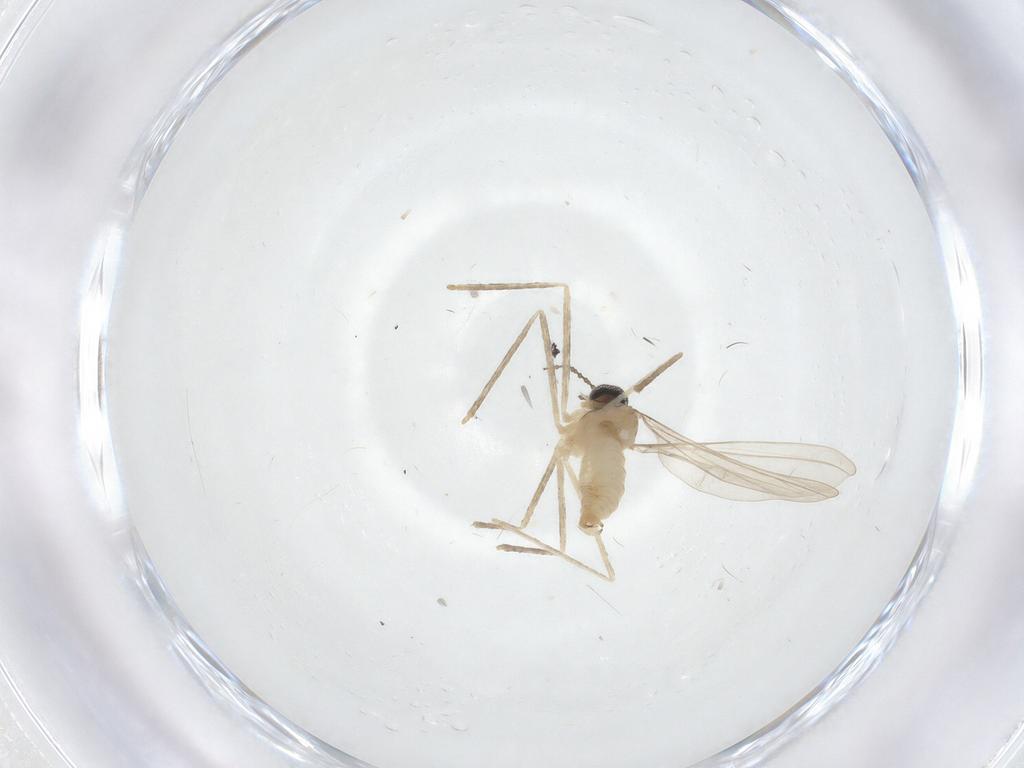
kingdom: Animalia
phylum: Arthropoda
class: Insecta
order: Diptera
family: Cecidomyiidae
